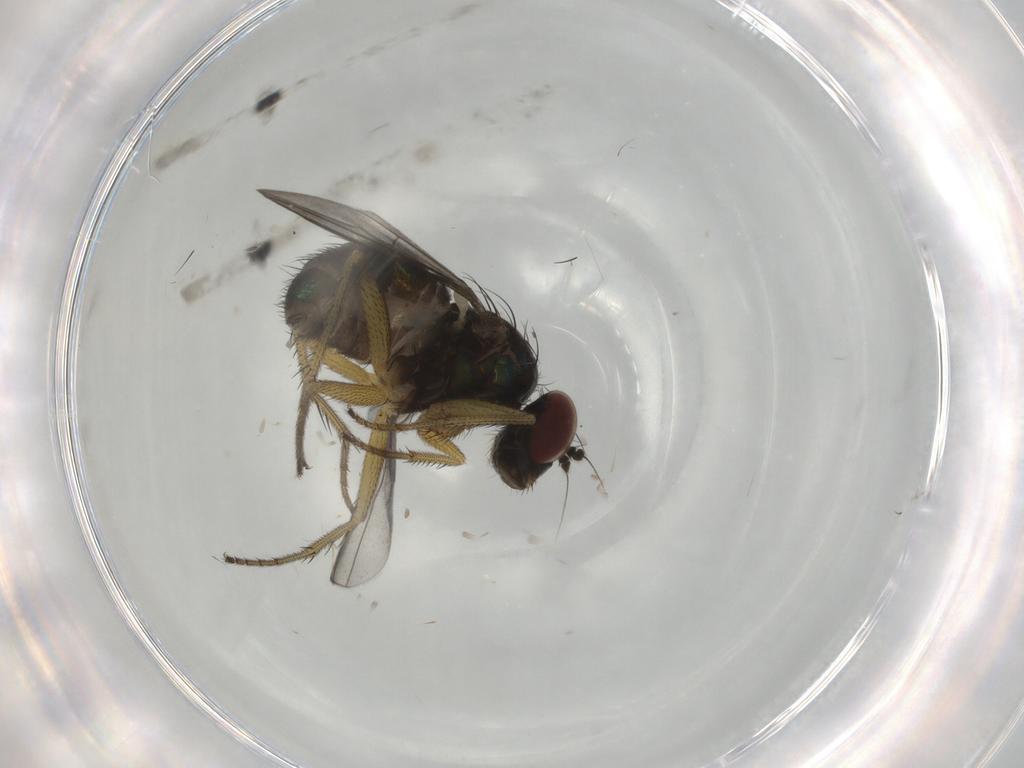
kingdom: Animalia
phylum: Arthropoda
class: Insecta
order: Diptera
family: Dolichopodidae
